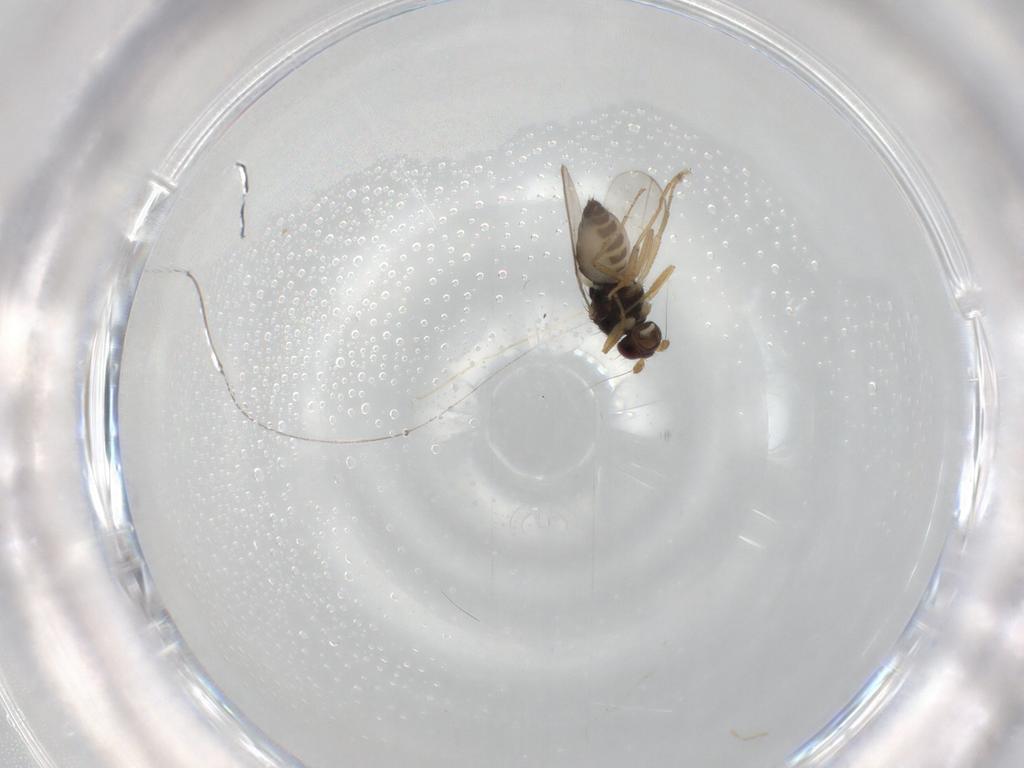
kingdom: Animalia
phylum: Arthropoda
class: Insecta
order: Diptera
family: Sphaeroceridae
